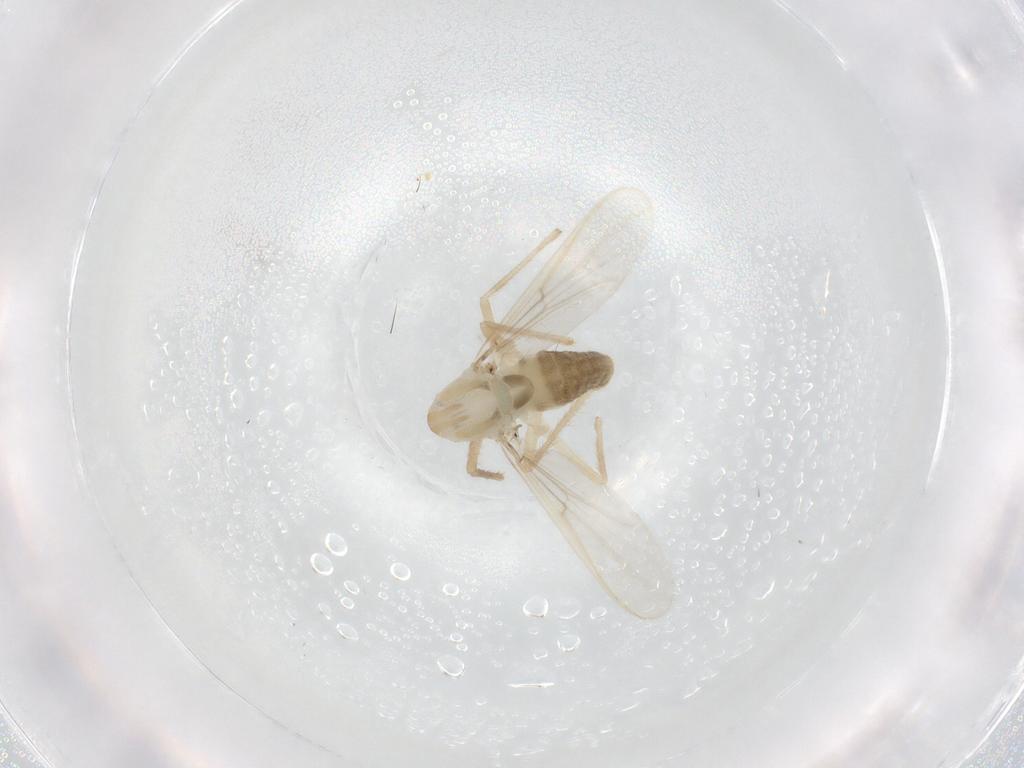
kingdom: Animalia
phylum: Arthropoda
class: Insecta
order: Diptera
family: Chironomidae
